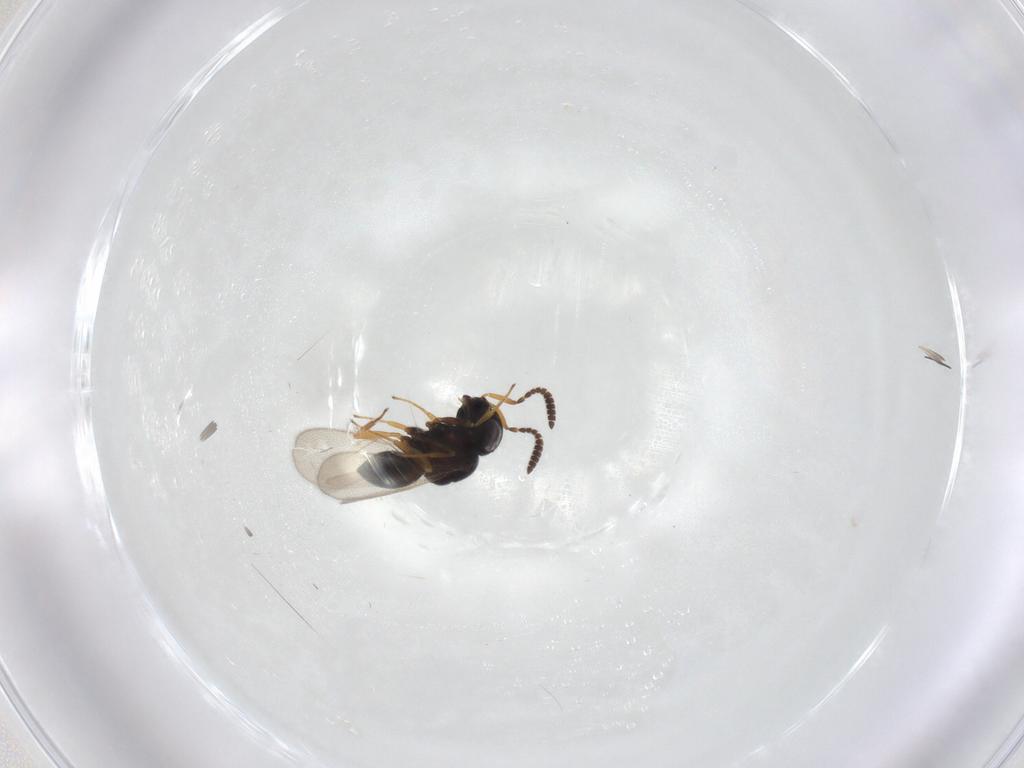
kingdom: Animalia
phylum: Arthropoda
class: Insecta
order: Hymenoptera
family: Scelionidae
